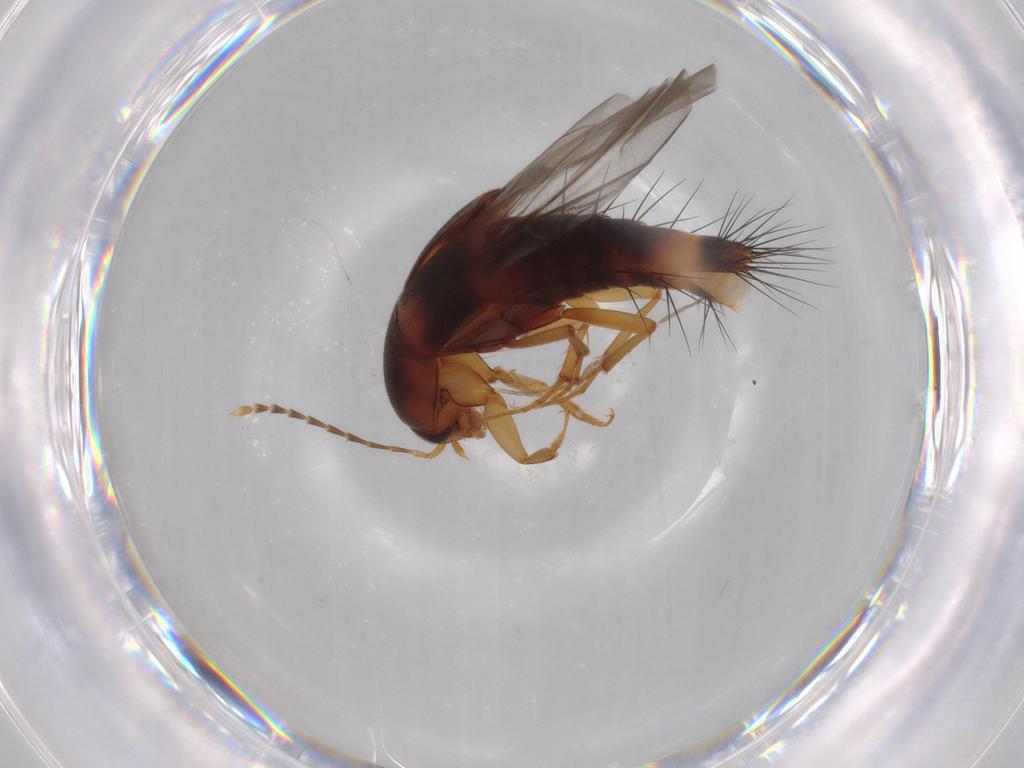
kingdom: Animalia
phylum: Arthropoda
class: Insecta
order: Coleoptera
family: Staphylinidae
